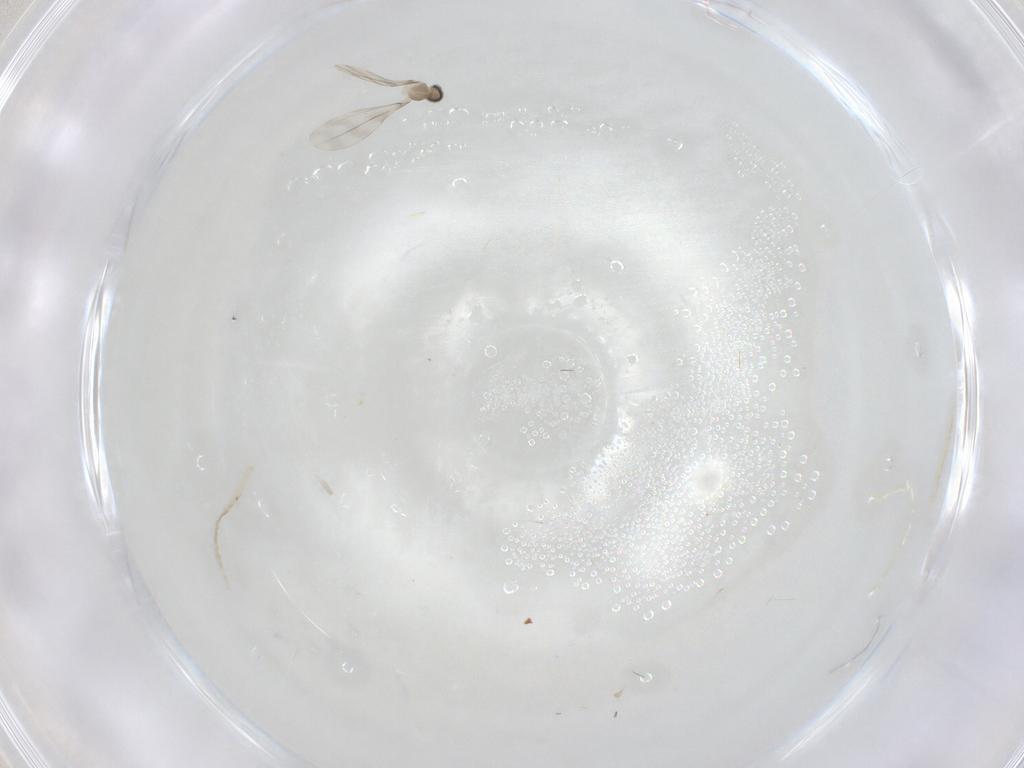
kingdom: Animalia
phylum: Arthropoda
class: Insecta
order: Diptera
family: Cecidomyiidae
